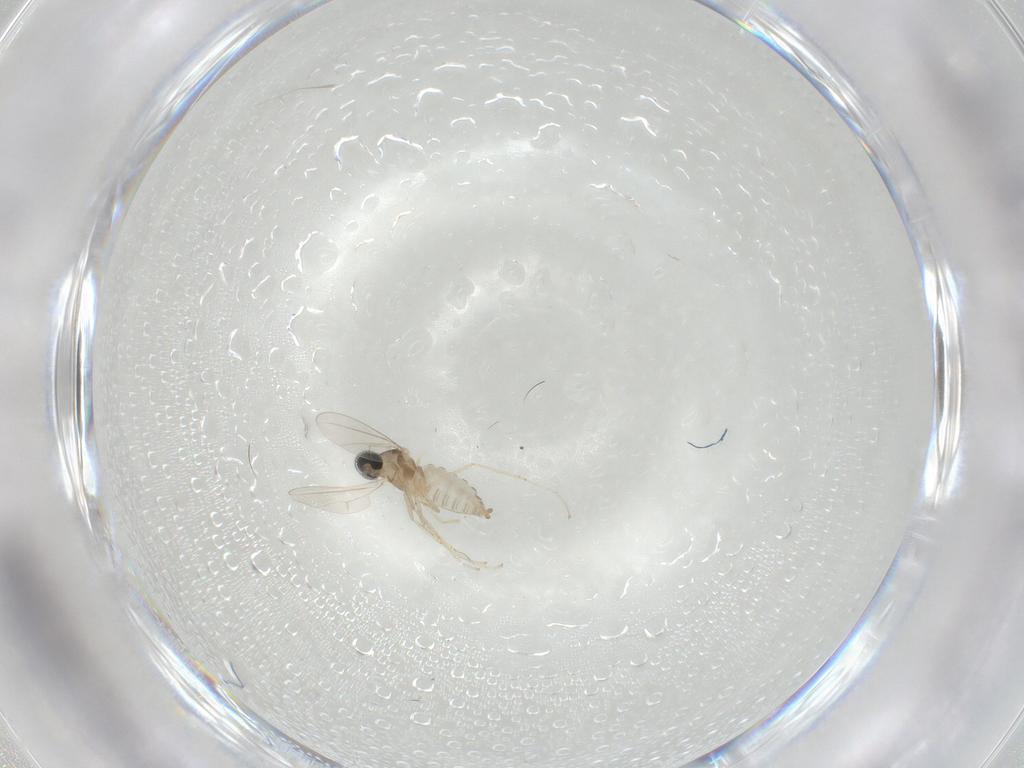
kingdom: Animalia
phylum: Arthropoda
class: Insecta
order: Diptera
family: Cecidomyiidae
